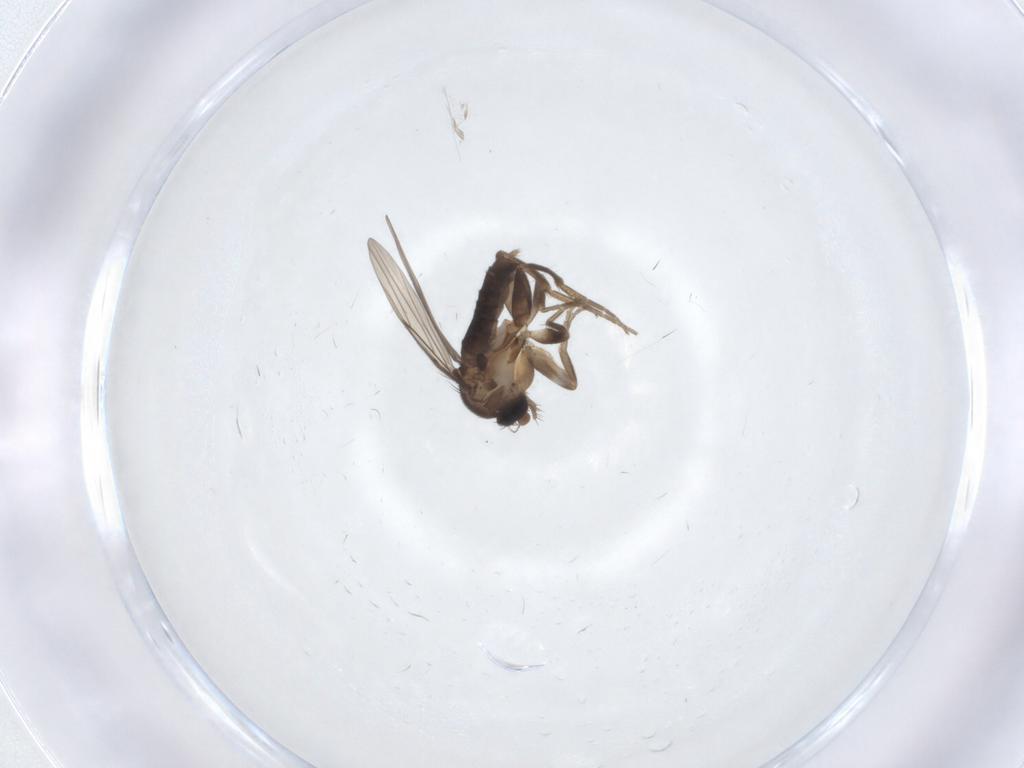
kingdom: Animalia
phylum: Arthropoda
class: Insecta
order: Diptera
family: Phoridae
